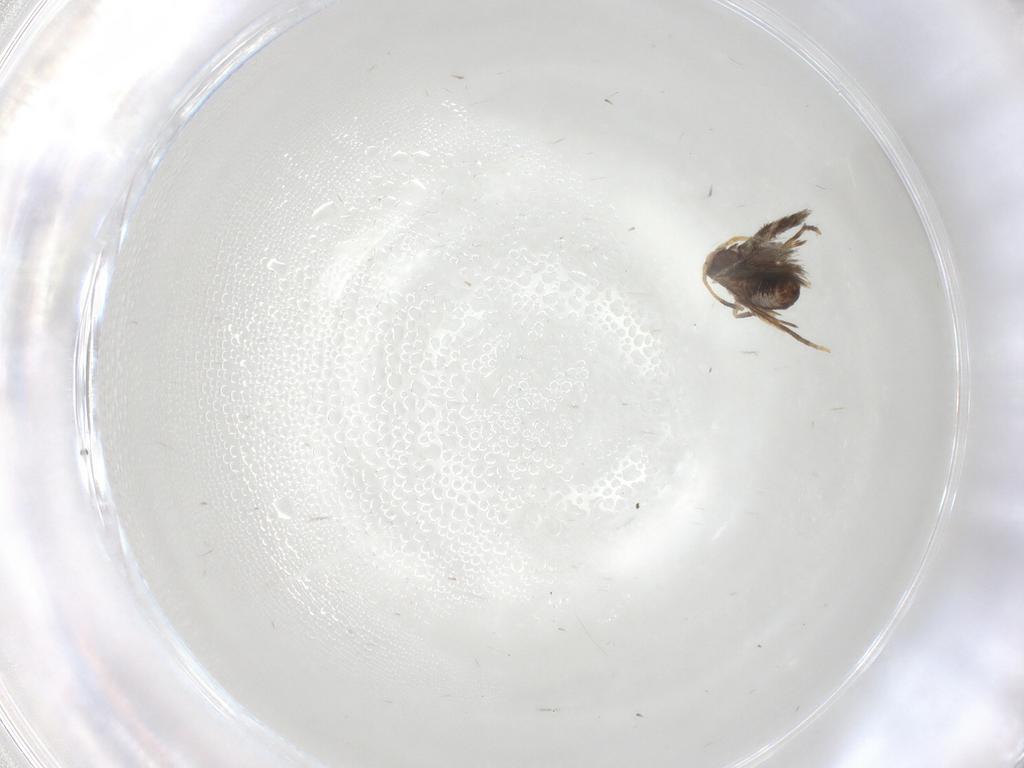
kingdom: Animalia
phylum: Arthropoda
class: Insecta
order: Lepidoptera
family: Nepticulidae
